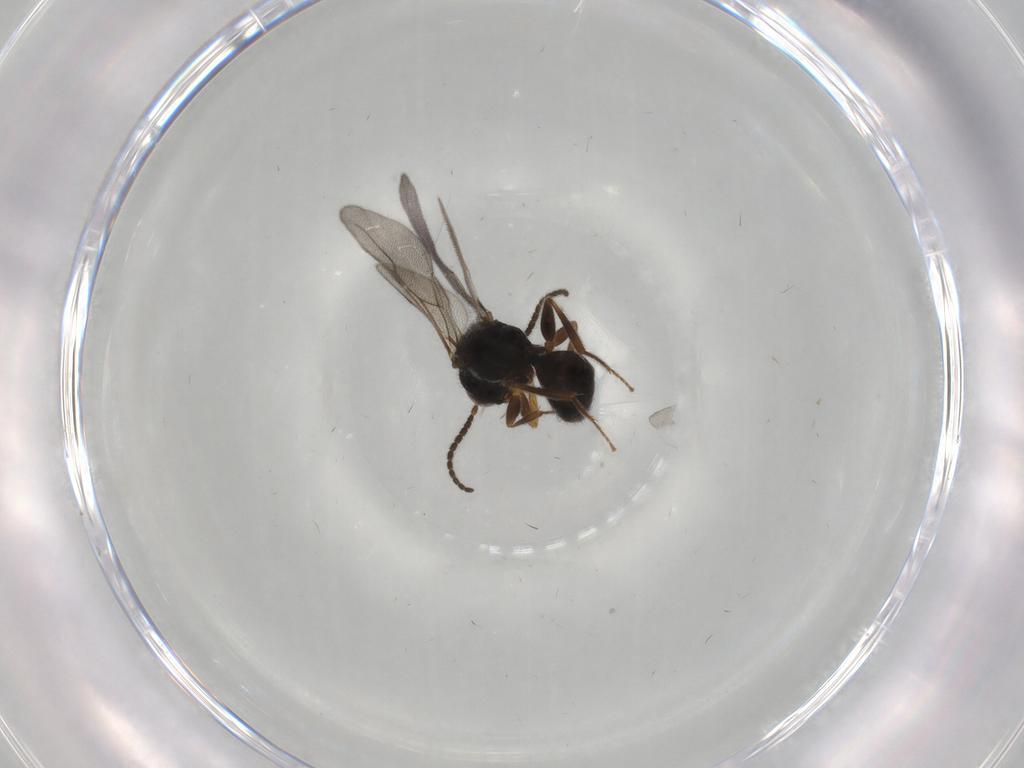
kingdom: Animalia
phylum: Arthropoda
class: Insecta
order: Hymenoptera
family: Bethylidae
